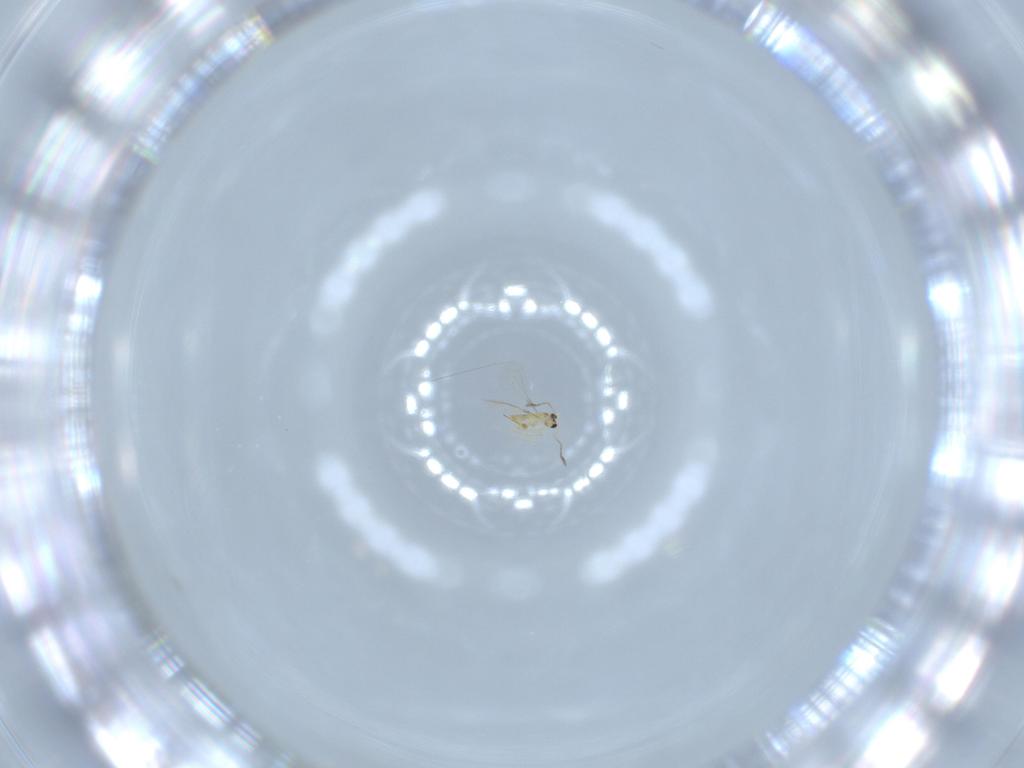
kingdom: Animalia
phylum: Arthropoda
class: Insecta
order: Hymenoptera
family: Mymaridae
